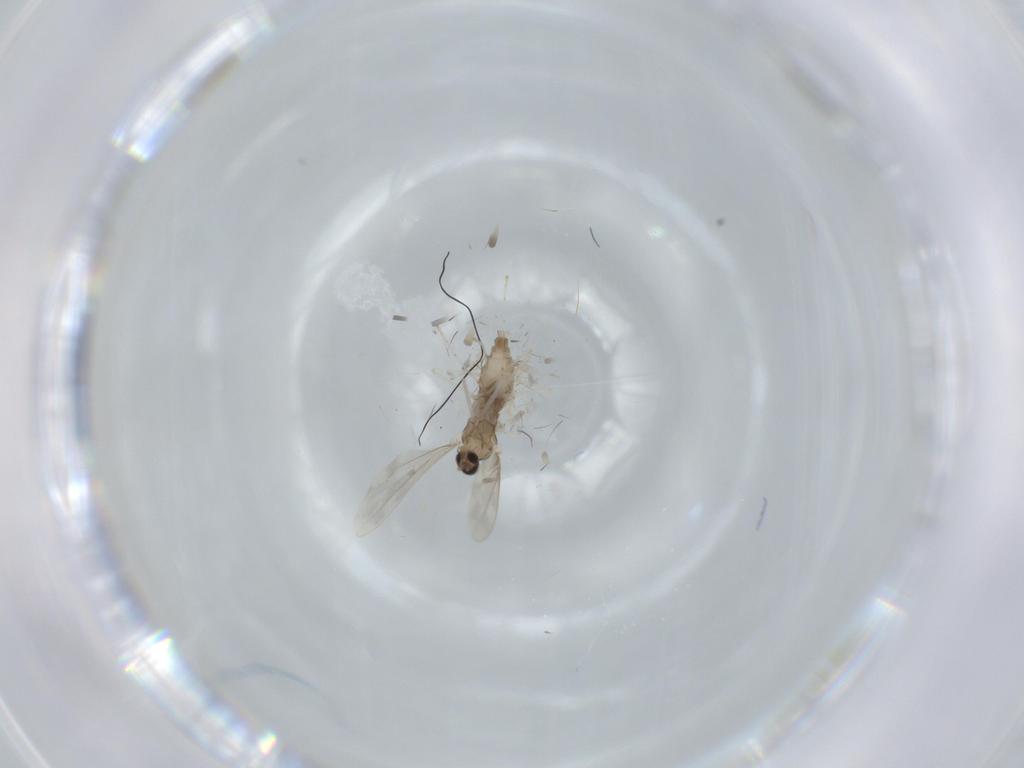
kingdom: Animalia
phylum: Arthropoda
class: Insecta
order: Diptera
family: Cecidomyiidae
